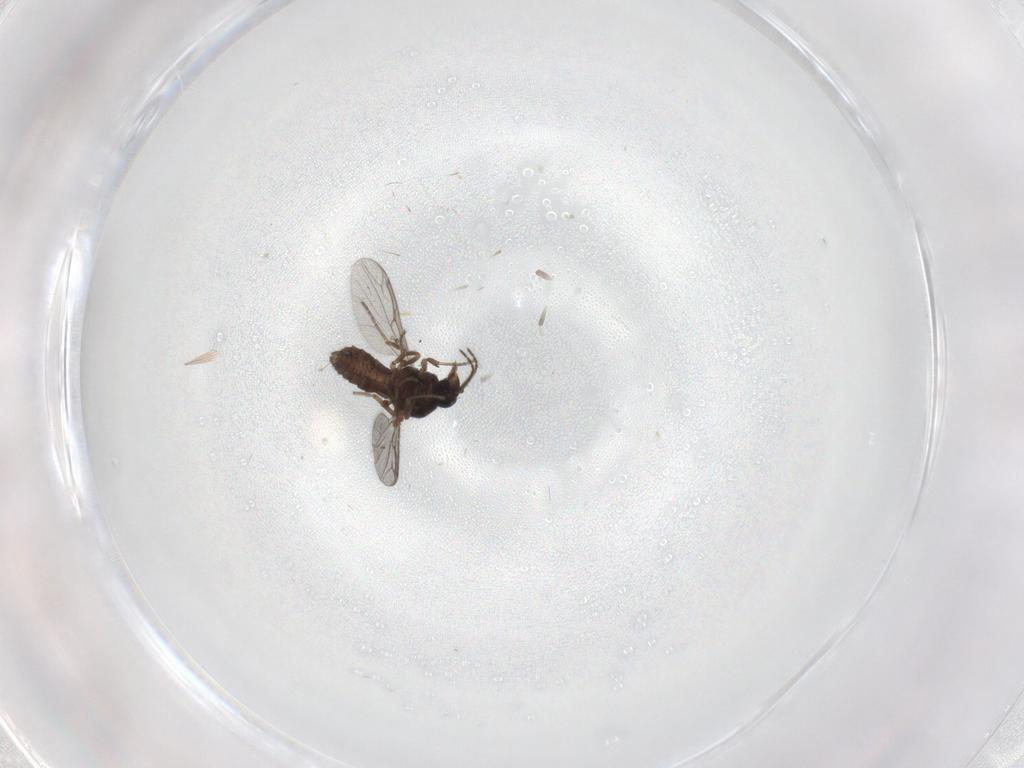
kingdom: Animalia
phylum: Arthropoda
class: Insecta
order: Diptera
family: Ceratopogonidae
